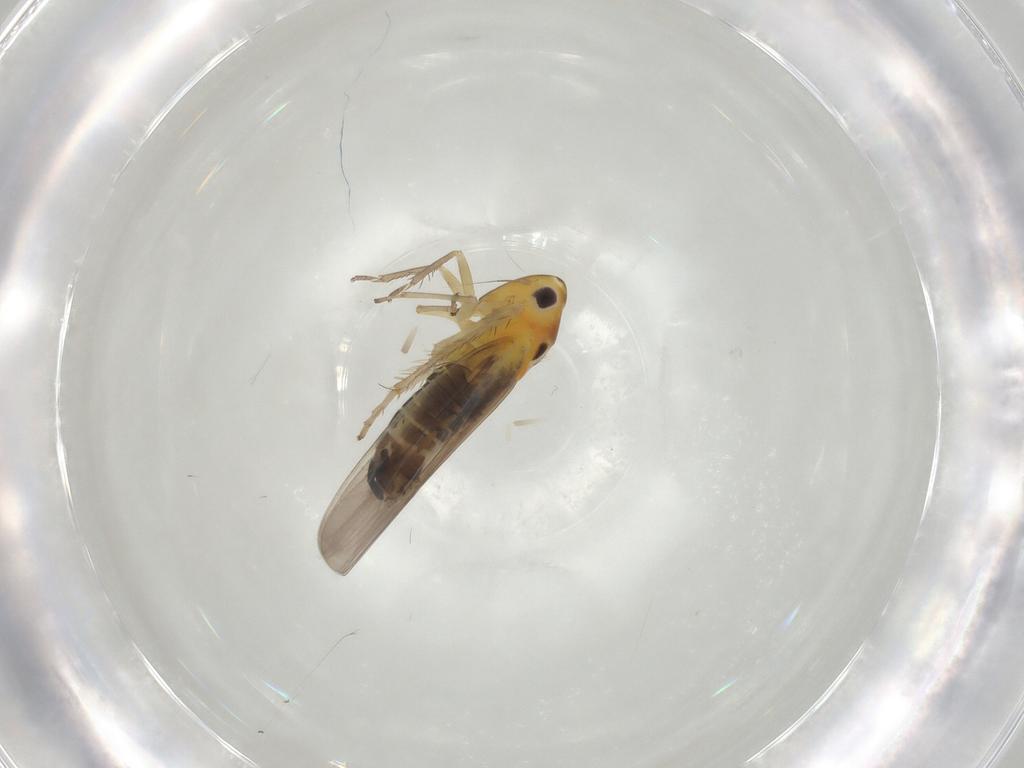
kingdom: Animalia
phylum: Arthropoda
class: Insecta
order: Hemiptera
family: Cicadellidae
